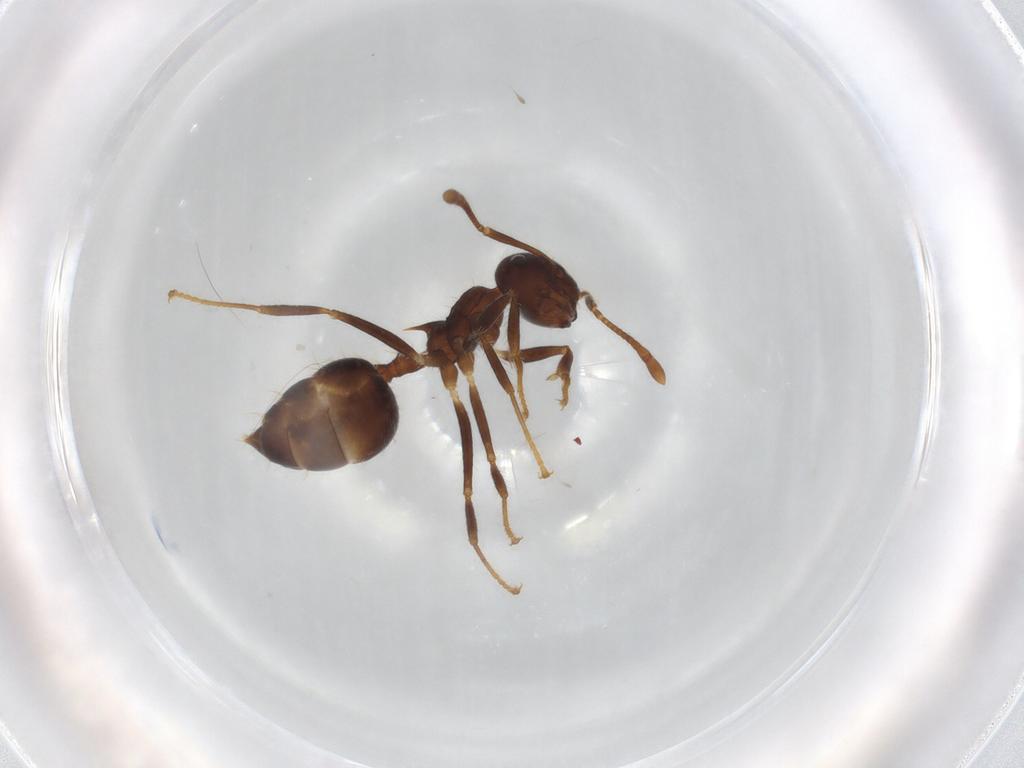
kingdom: Animalia
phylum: Arthropoda
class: Insecta
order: Hymenoptera
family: Formicidae
